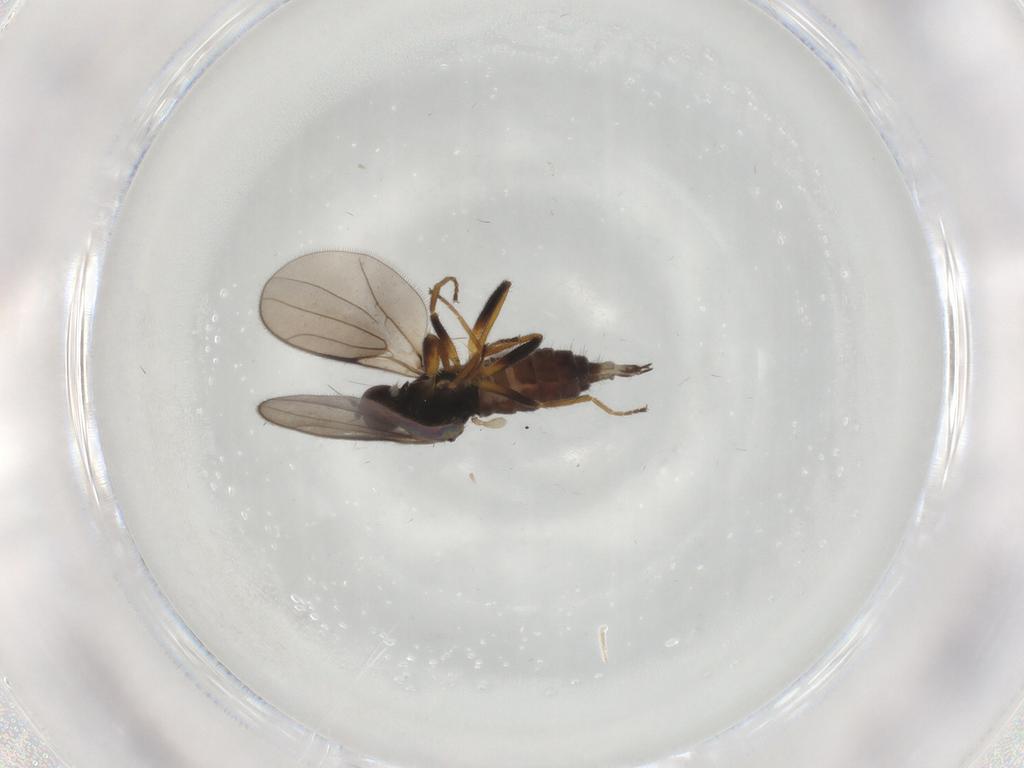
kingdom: Animalia
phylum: Arthropoda
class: Insecta
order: Diptera
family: Hybotidae
